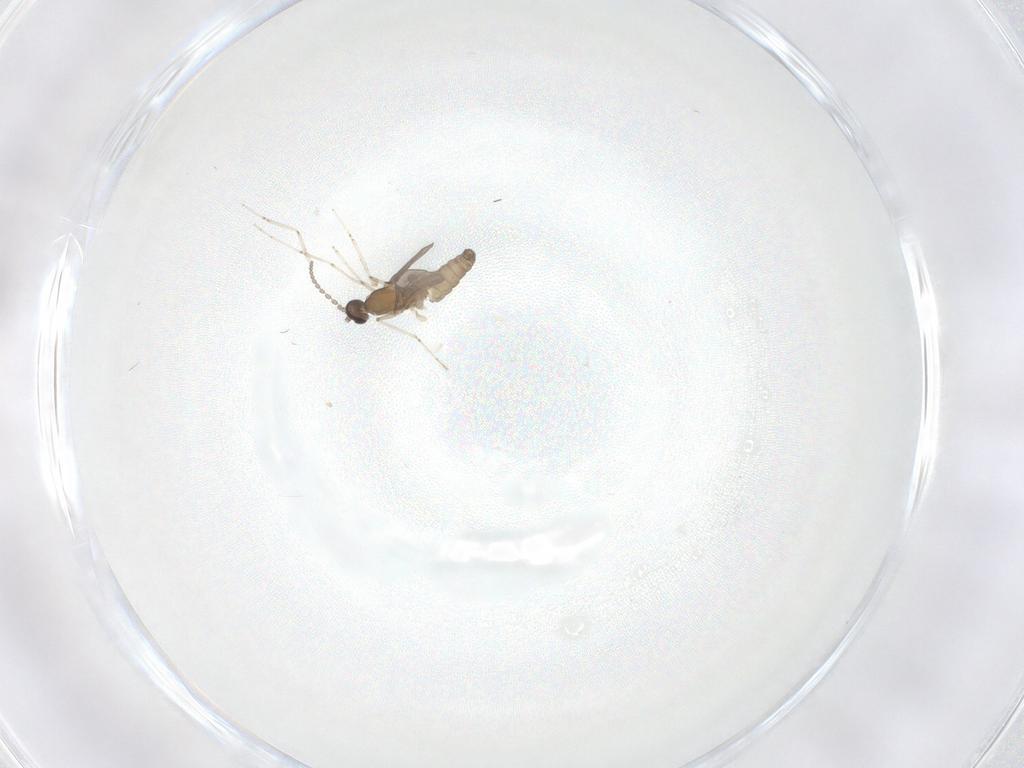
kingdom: Animalia
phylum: Arthropoda
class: Insecta
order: Diptera
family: Cecidomyiidae
